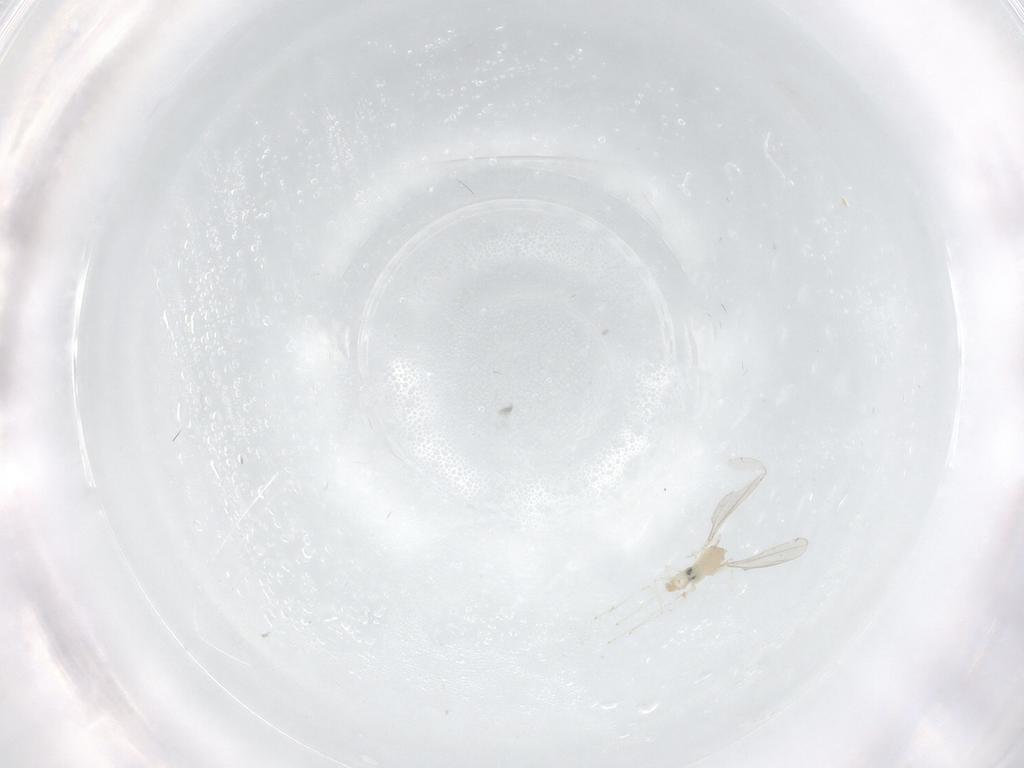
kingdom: Animalia
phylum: Arthropoda
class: Insecta
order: Diptera
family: Cecidomyiidae
